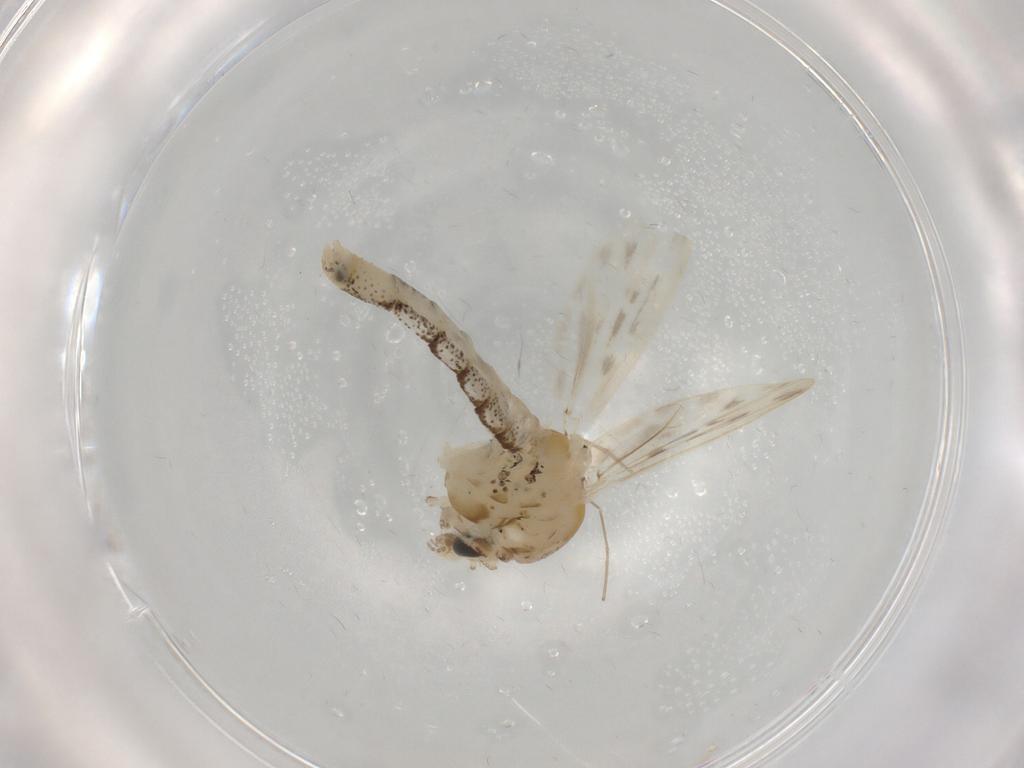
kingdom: Animalia
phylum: Arthropoda
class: Insecta
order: Diptera
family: Chaoboridae
